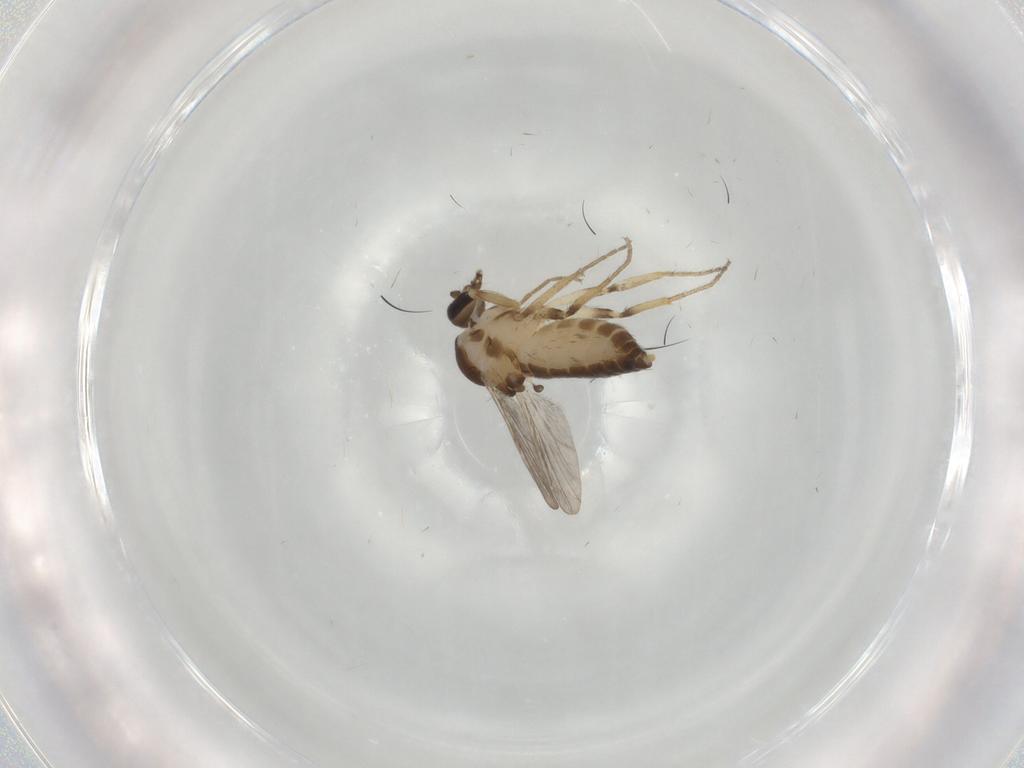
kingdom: Animalia
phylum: Arthropoda
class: Insecta
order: Diptera
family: Ceratopogonidae
